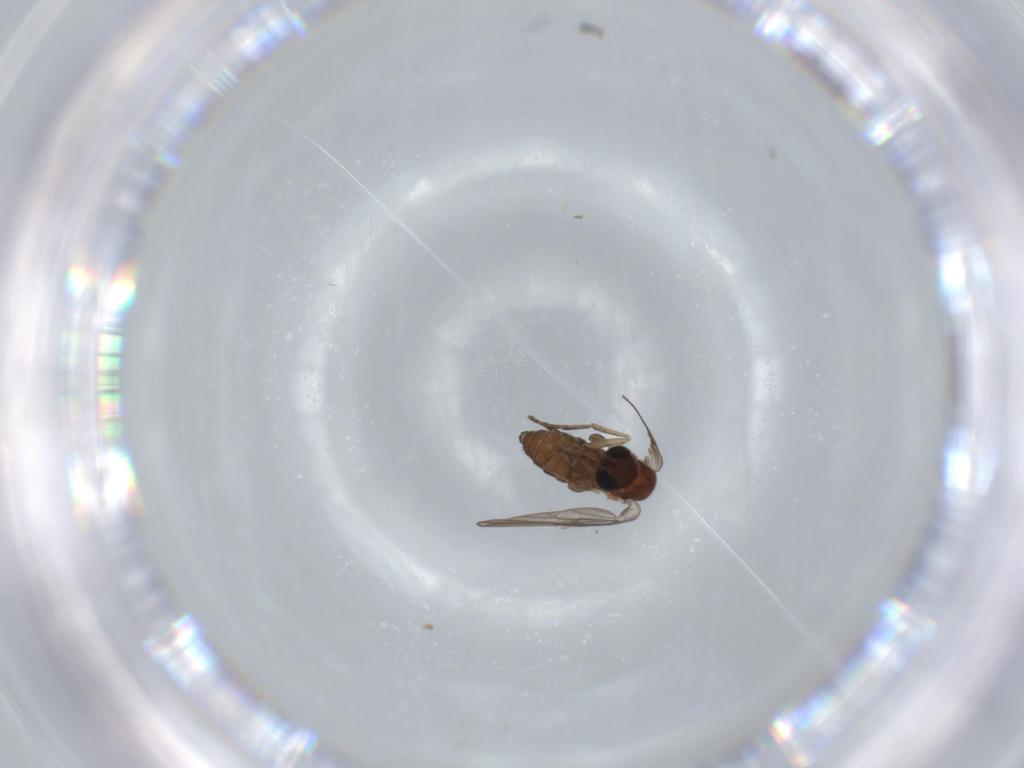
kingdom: Animalia
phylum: Arthropoda
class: Insecta
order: Diptera
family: Psychodidae
